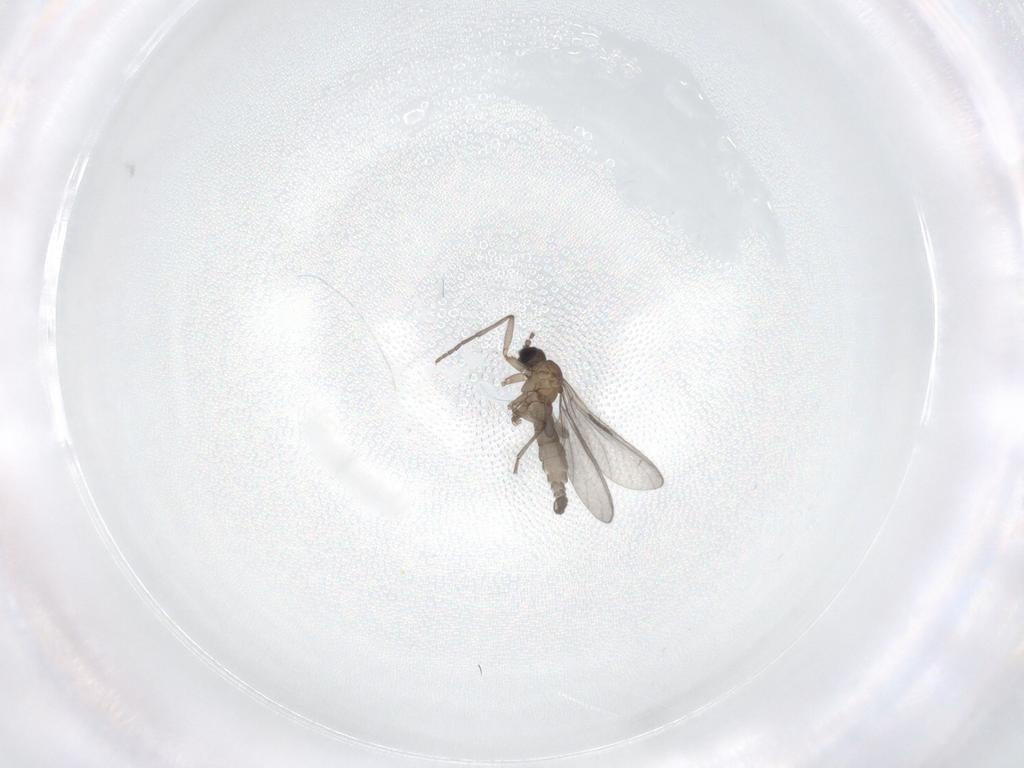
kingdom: Animalia
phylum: Arthropoda
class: Insecta
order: Diptera
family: Sciaridae
